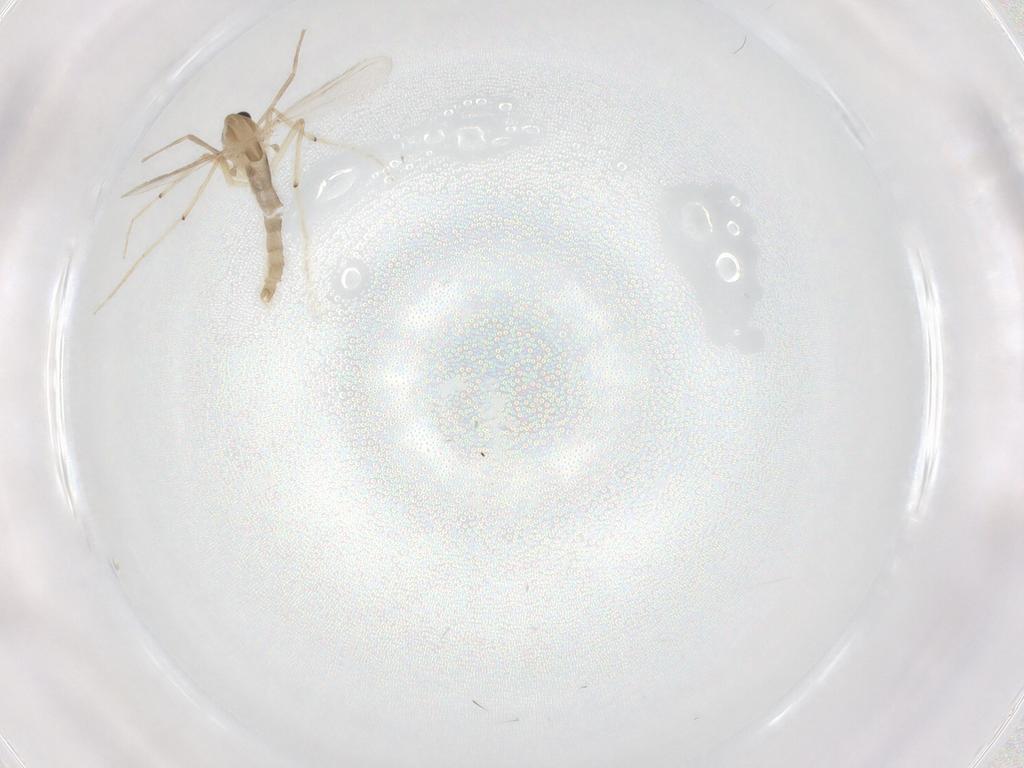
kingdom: Animalia
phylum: Arthropoda
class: Insecta
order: Diptera
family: Chironomidae
